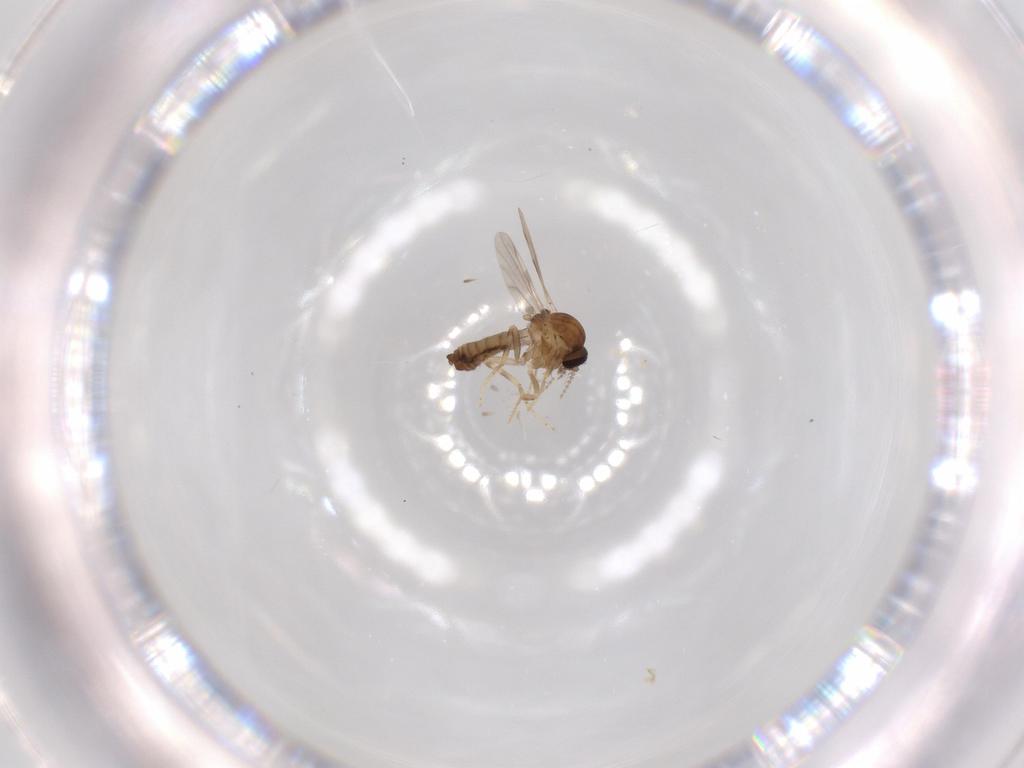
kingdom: Animalia
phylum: Arthropoda
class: Insecta
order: Diptera
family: Ceratopogonidae
